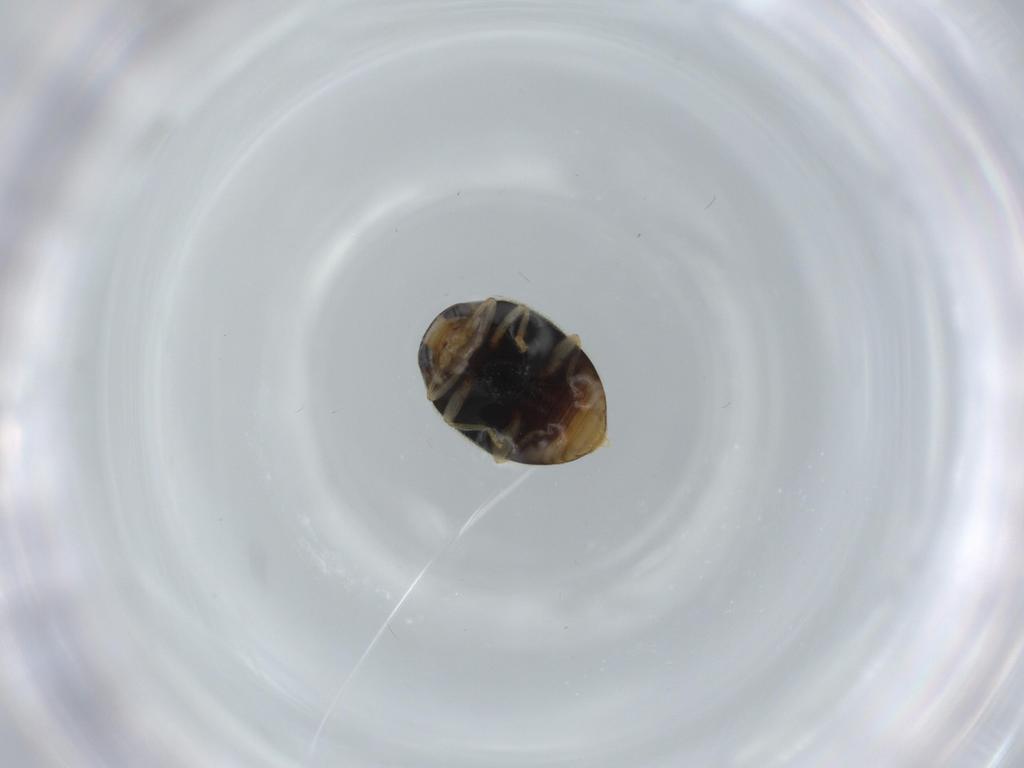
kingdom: Animalia
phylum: Arthropoda
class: Insecta
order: Coleoptera
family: Coccinellidae
